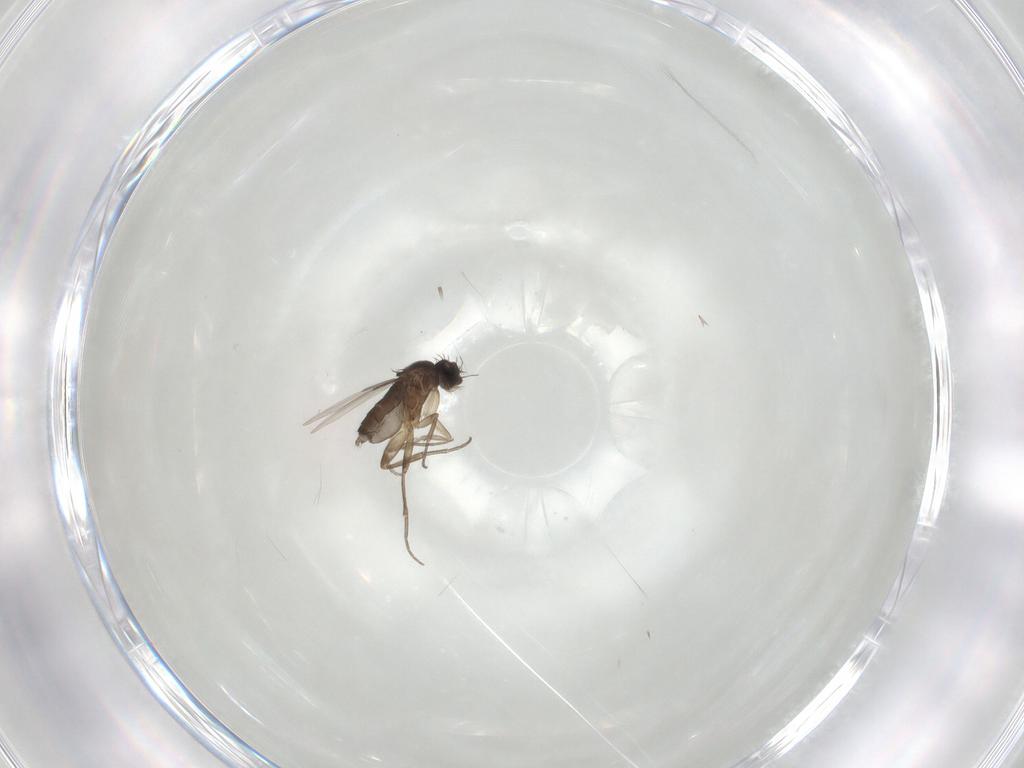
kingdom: Animalia
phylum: Arthropoda
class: Insecta
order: Diptera
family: Phoridae
